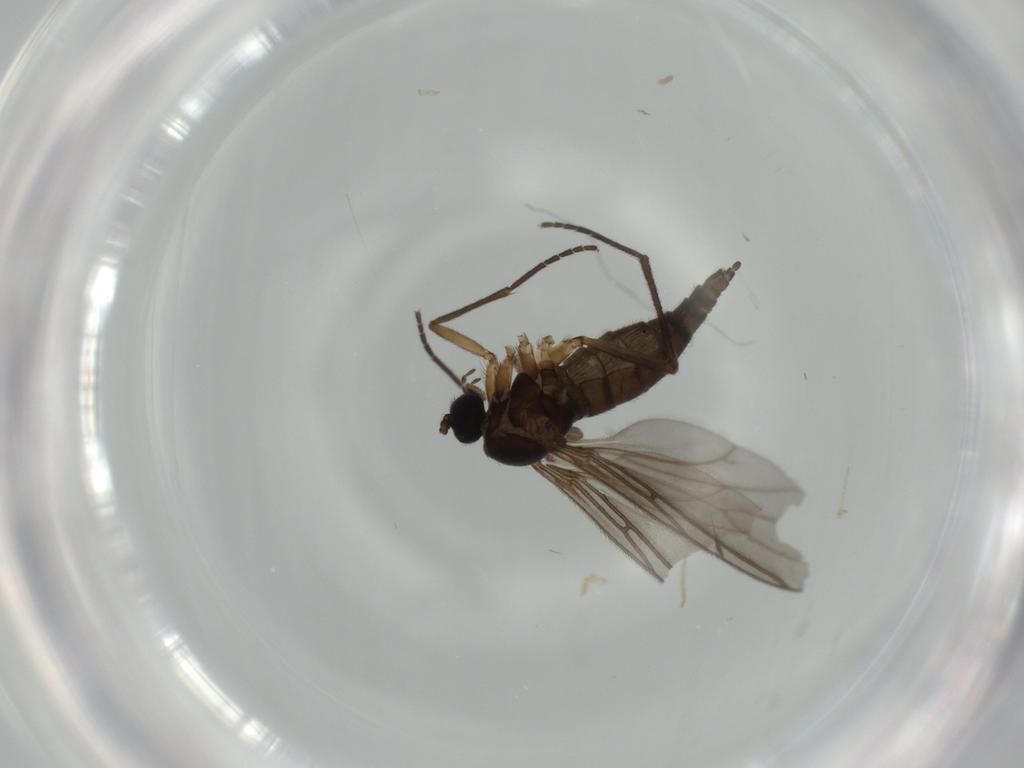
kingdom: Animalia
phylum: Arthropoda
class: Insecta
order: Diptera
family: Sciaridae
